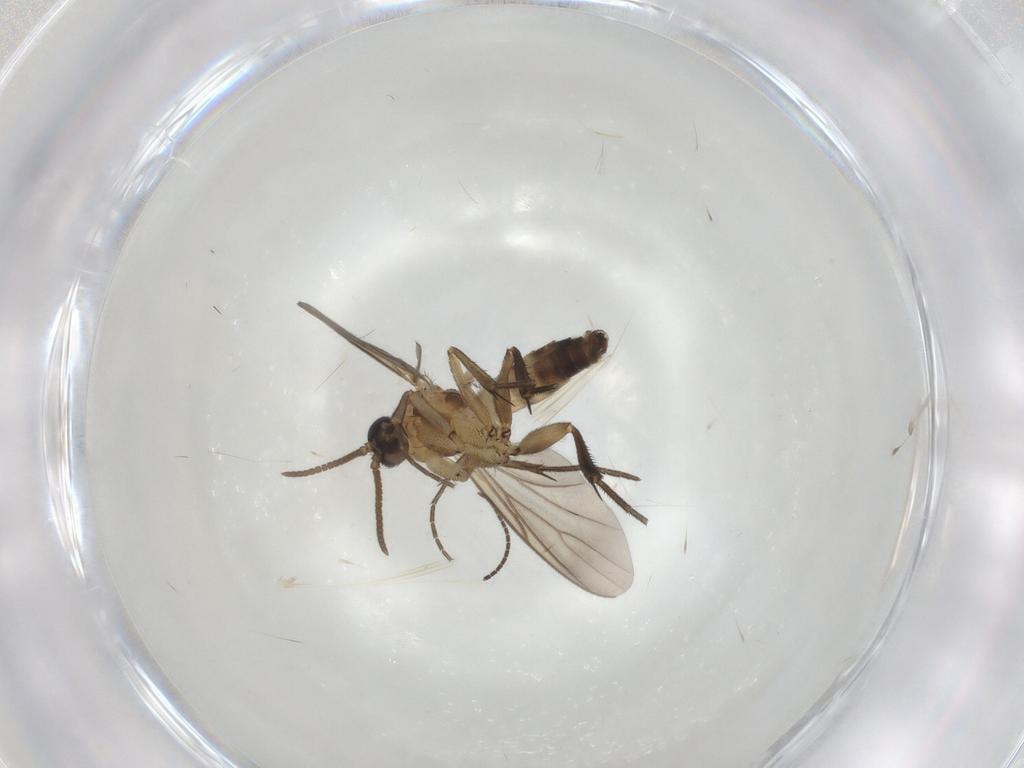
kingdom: Animalia
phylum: Arthropoda
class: Insecta
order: Diptera
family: Mycetophilidae
